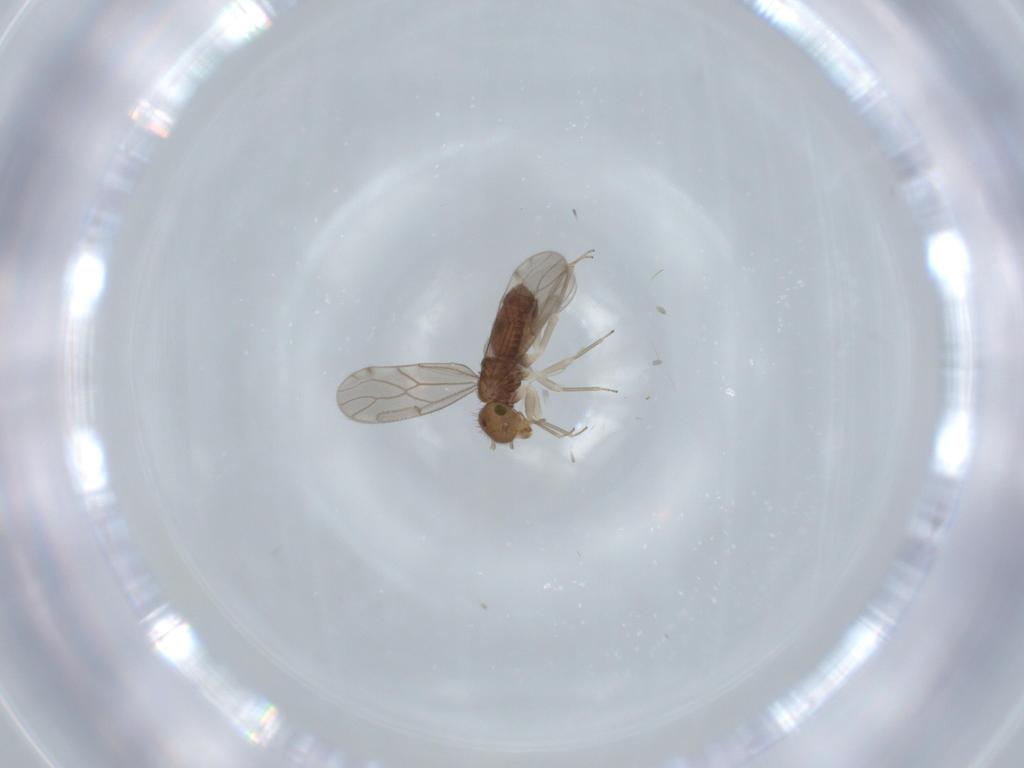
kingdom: Animalia
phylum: Arthropoda
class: Insecta
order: Psocodea
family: Ectopsocidae
